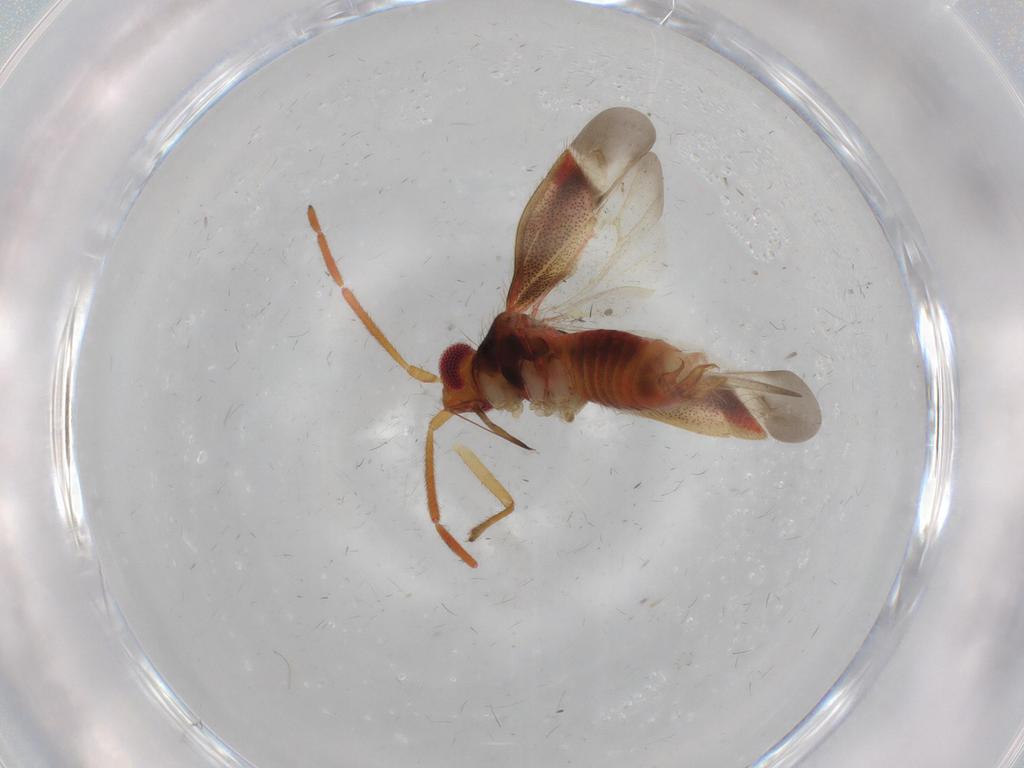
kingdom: Animalia
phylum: Arthropoda
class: Insecta
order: Hemiptera
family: Miridae
